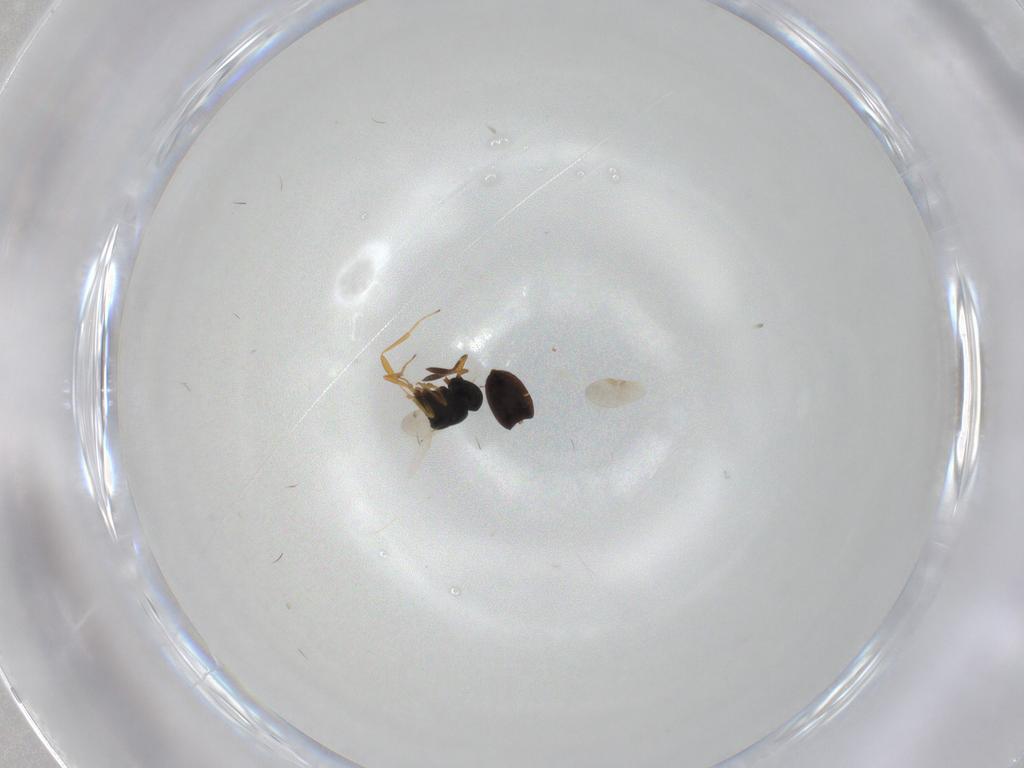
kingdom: Animalia
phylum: Arthropoda
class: Insecta
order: Hymenoptera
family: Scelionidae
